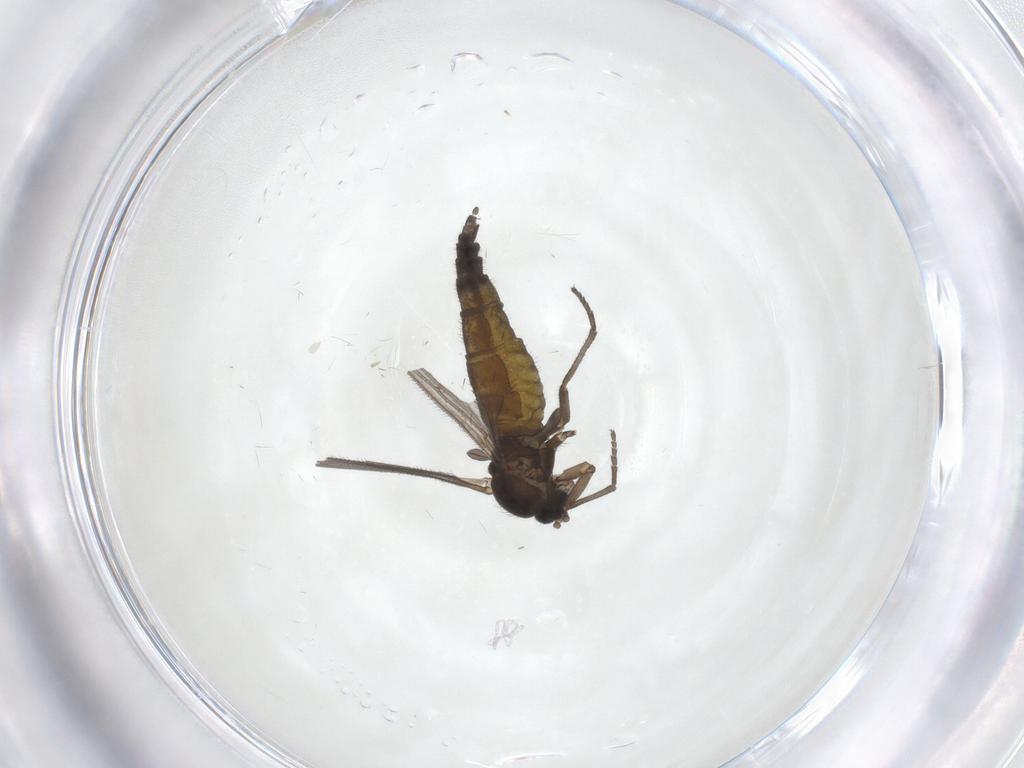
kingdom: Animalia
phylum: Arthropoda
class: Insecta
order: Diptera
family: Sciaridae
